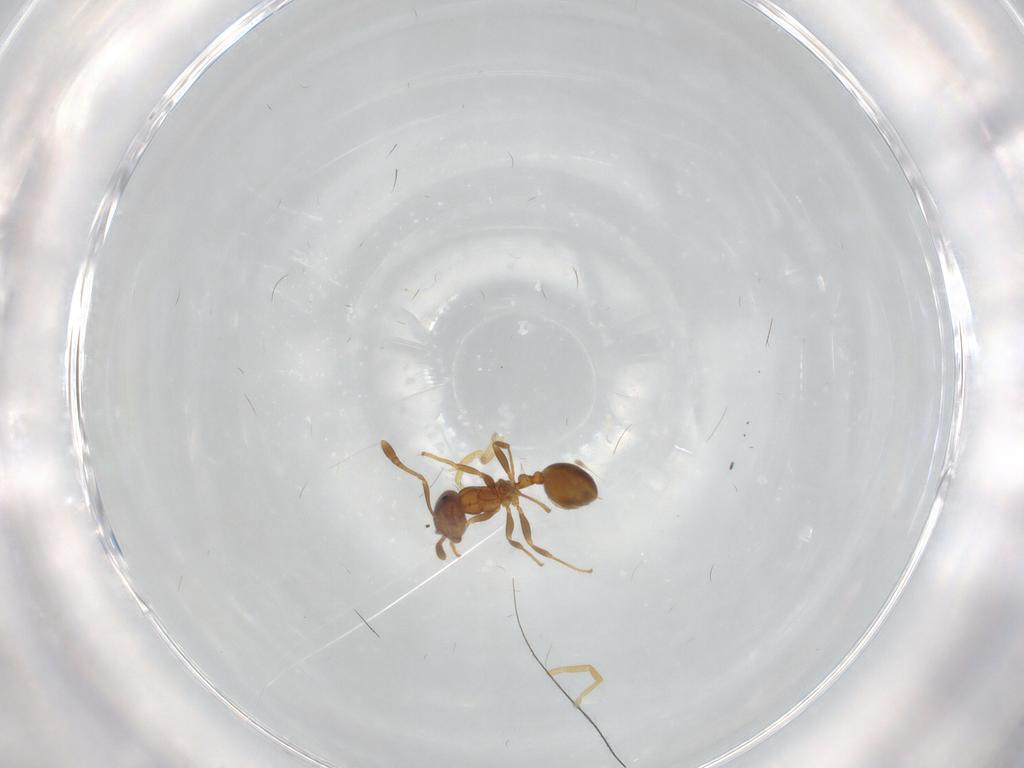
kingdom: Animalia
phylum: Arthropoda
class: Insecta
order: Hymenoptera
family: Formicidae
